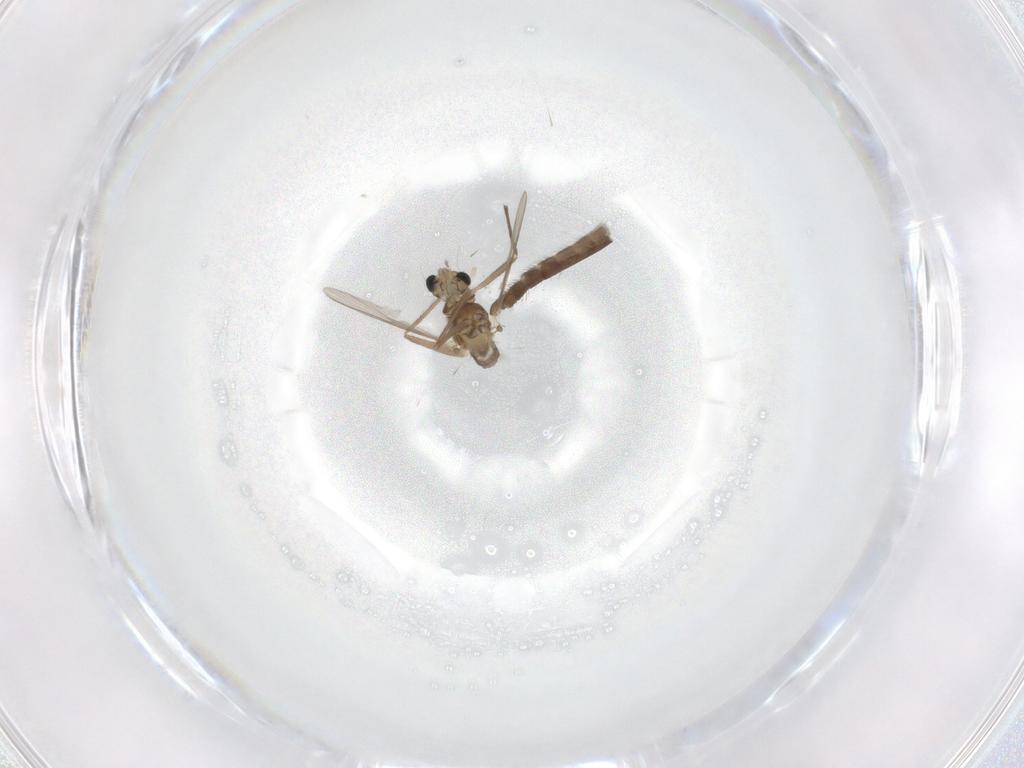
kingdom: Animalia
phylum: Arthropoda
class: Insecta
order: Diptera
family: Chironomidae
